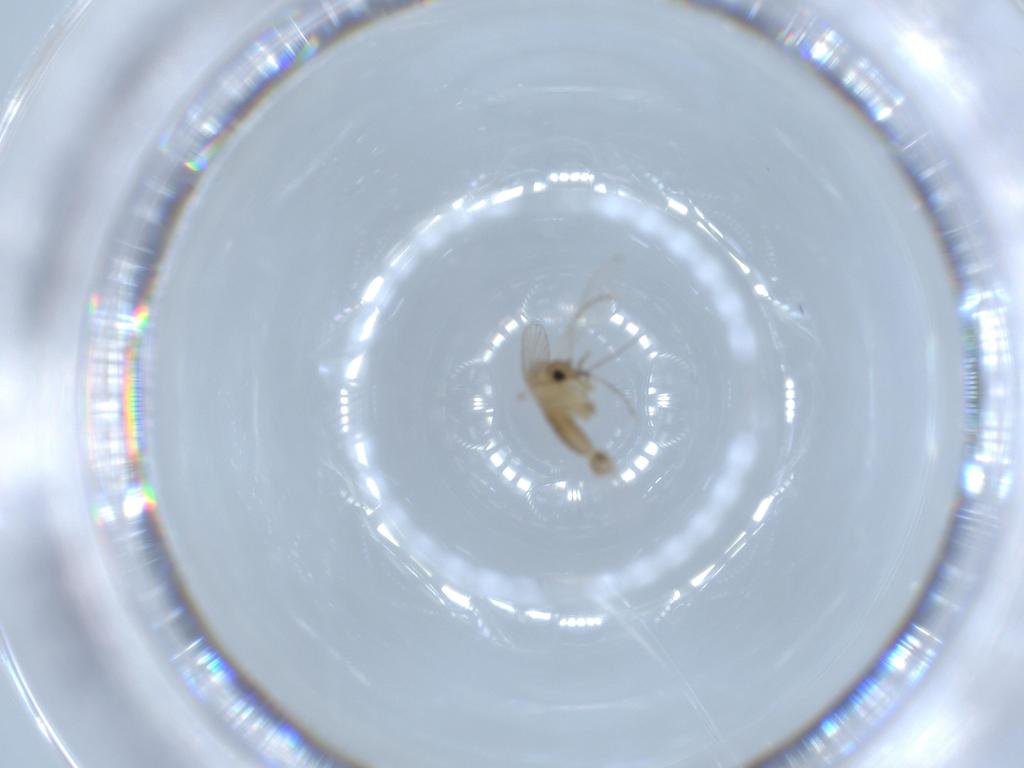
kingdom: Animalia
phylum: Arthropoda
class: Insecta
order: Diptera
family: Psychodidae
